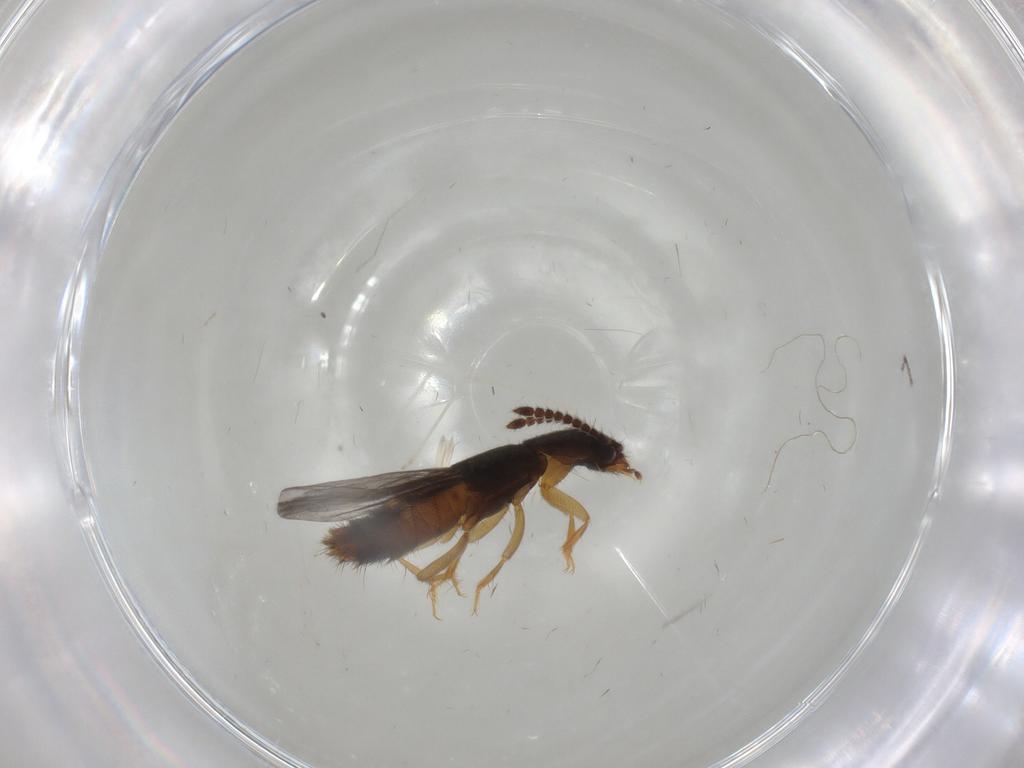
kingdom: Animalia
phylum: Arthropoda
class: Insecta
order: Coleoptera
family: Staphylinidae
